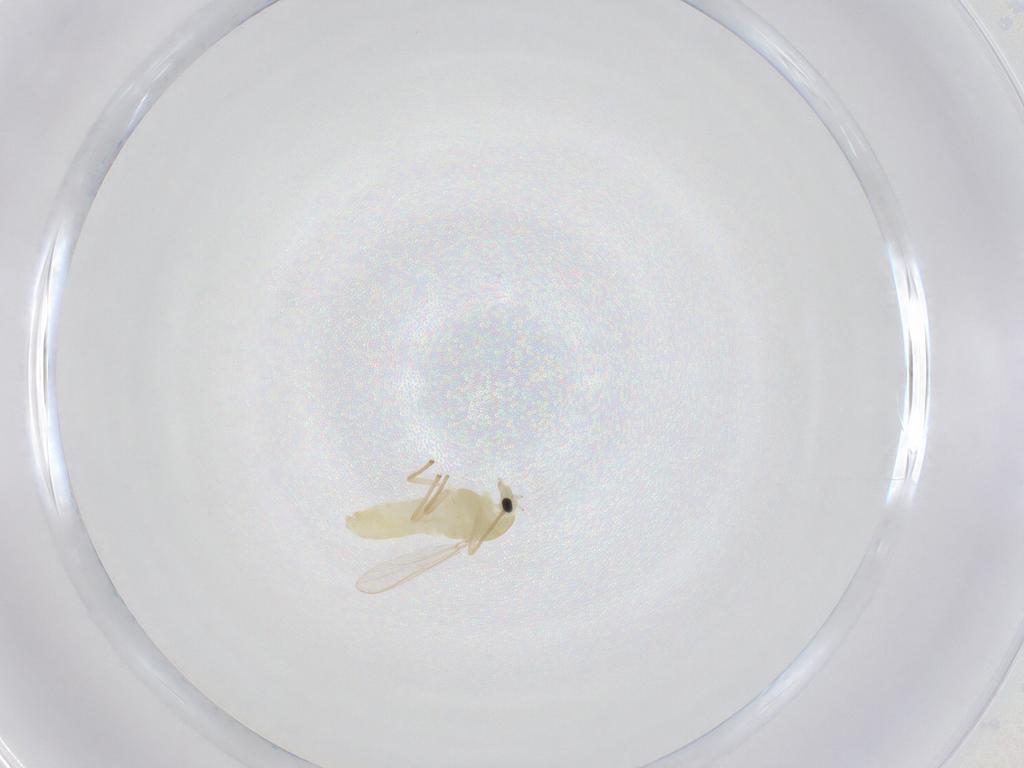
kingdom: Animalia
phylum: Arthropoda
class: Insecta
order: Diptera
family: Chironomidae
